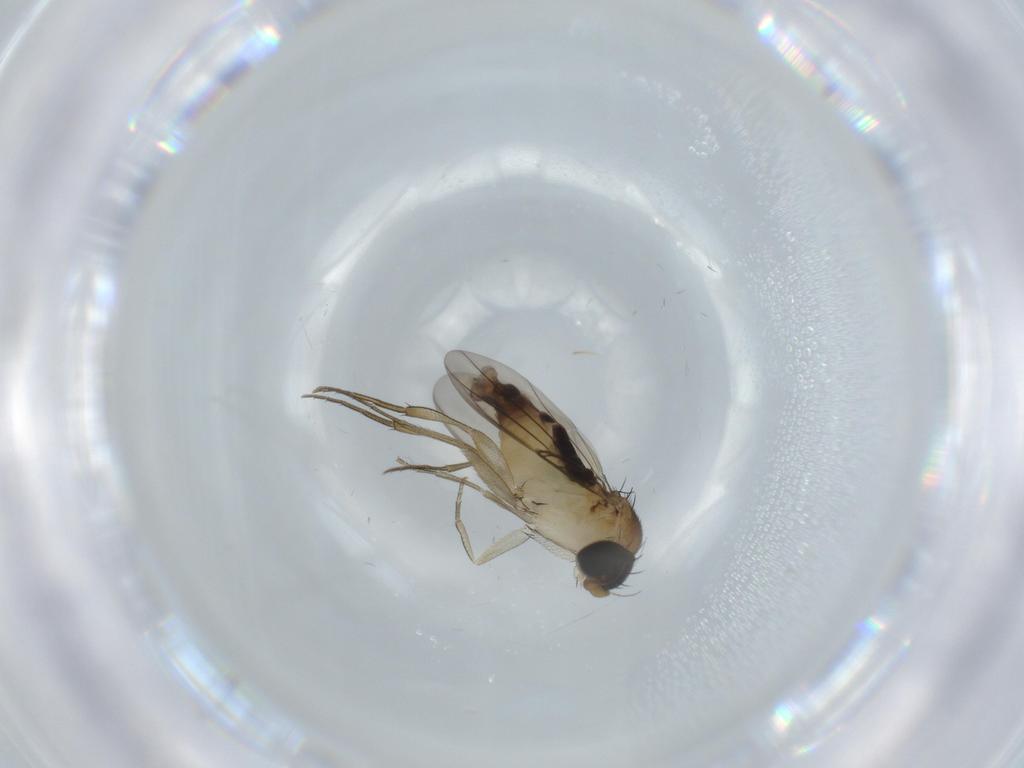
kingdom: Animalia
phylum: Arthropoda
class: Insecta
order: Diptera
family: Phoridae
